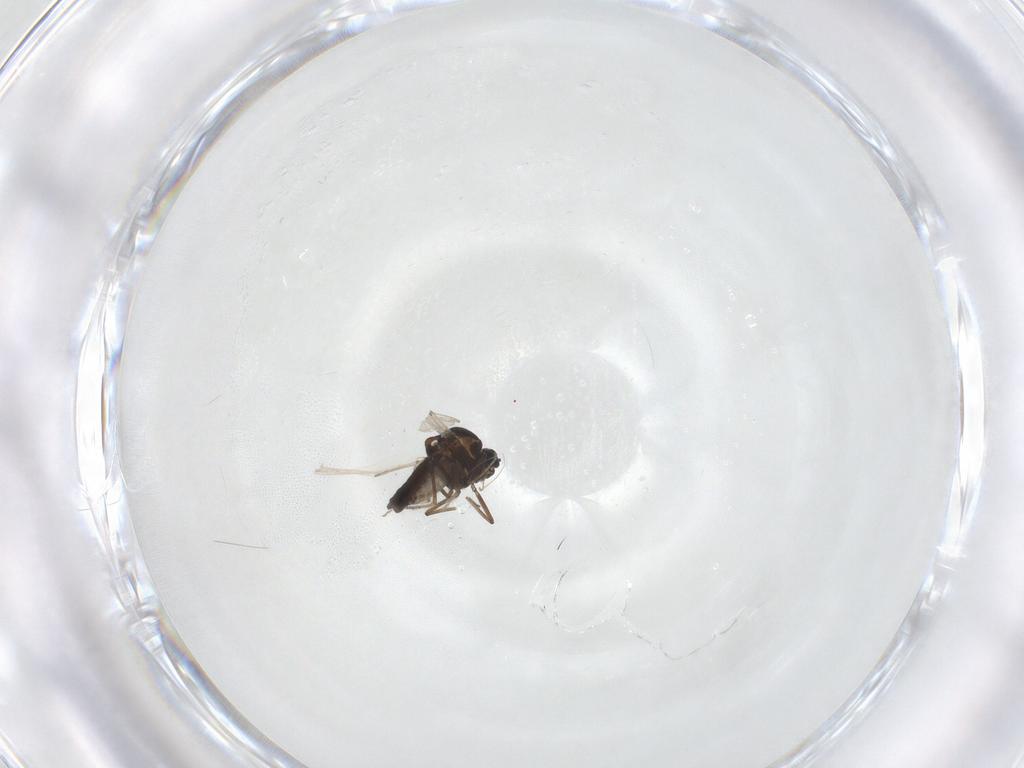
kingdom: Animalia
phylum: Arthropoda
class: Insecta
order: Diptera
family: Ceratopogonidae
